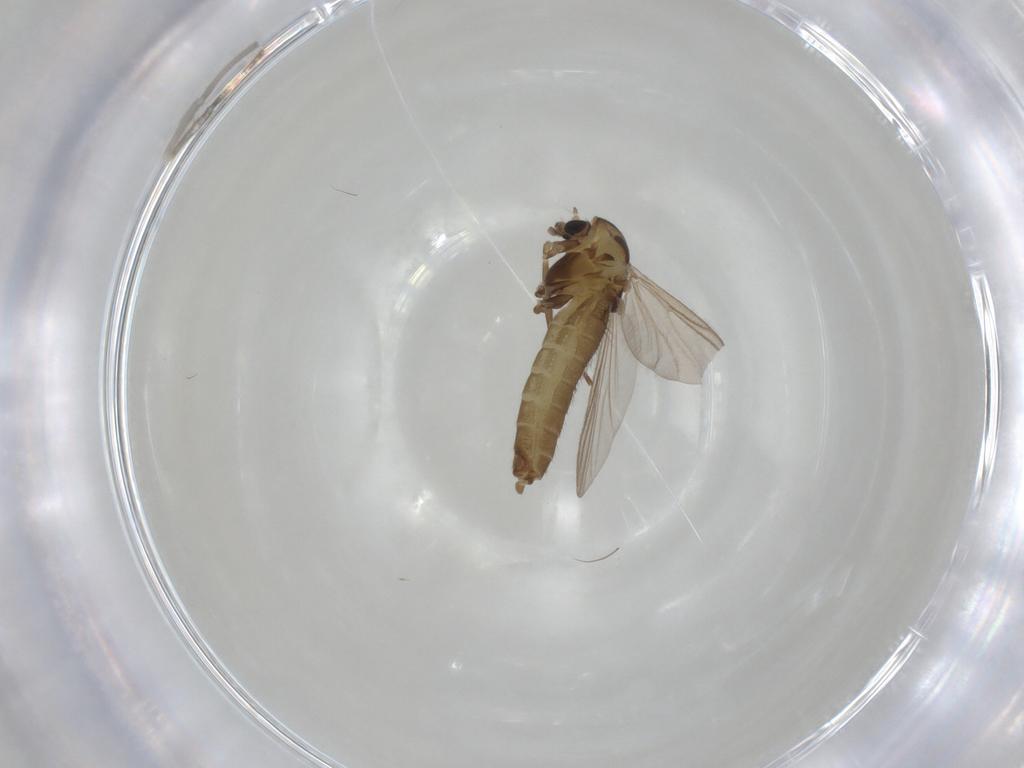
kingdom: Animalia
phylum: Arthropoda
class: Insecta
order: Diptera
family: Chironomidae
